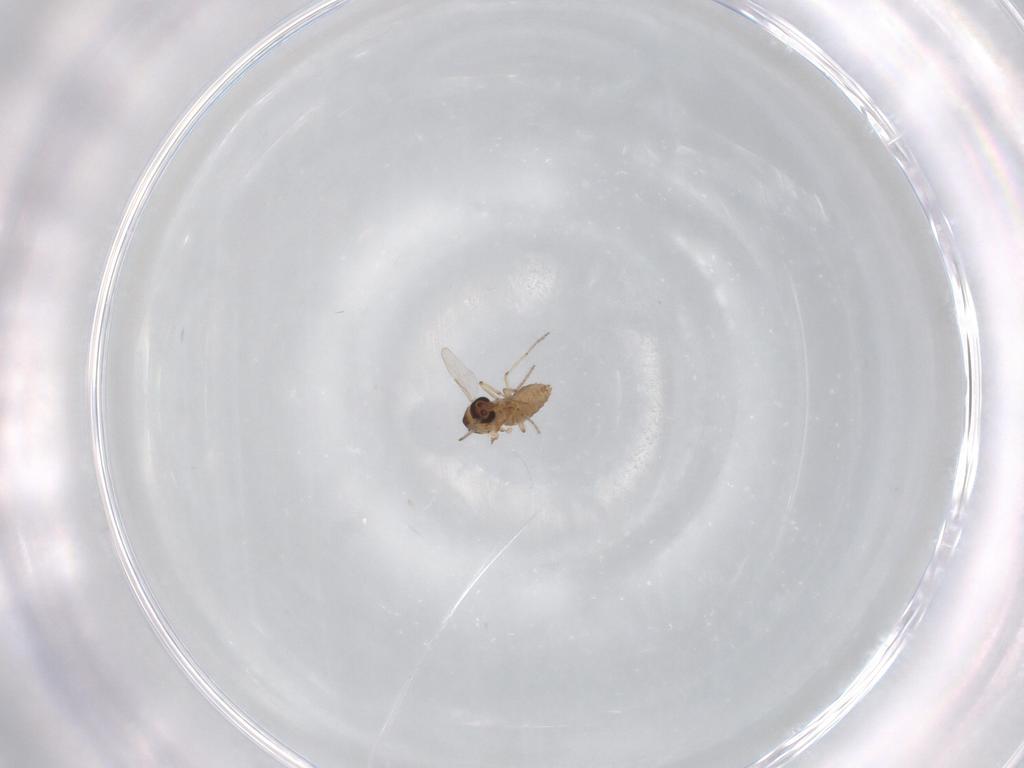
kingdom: Animalia
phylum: Arthropoda
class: Insecta
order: Diptera
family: Ceratopogonidae
